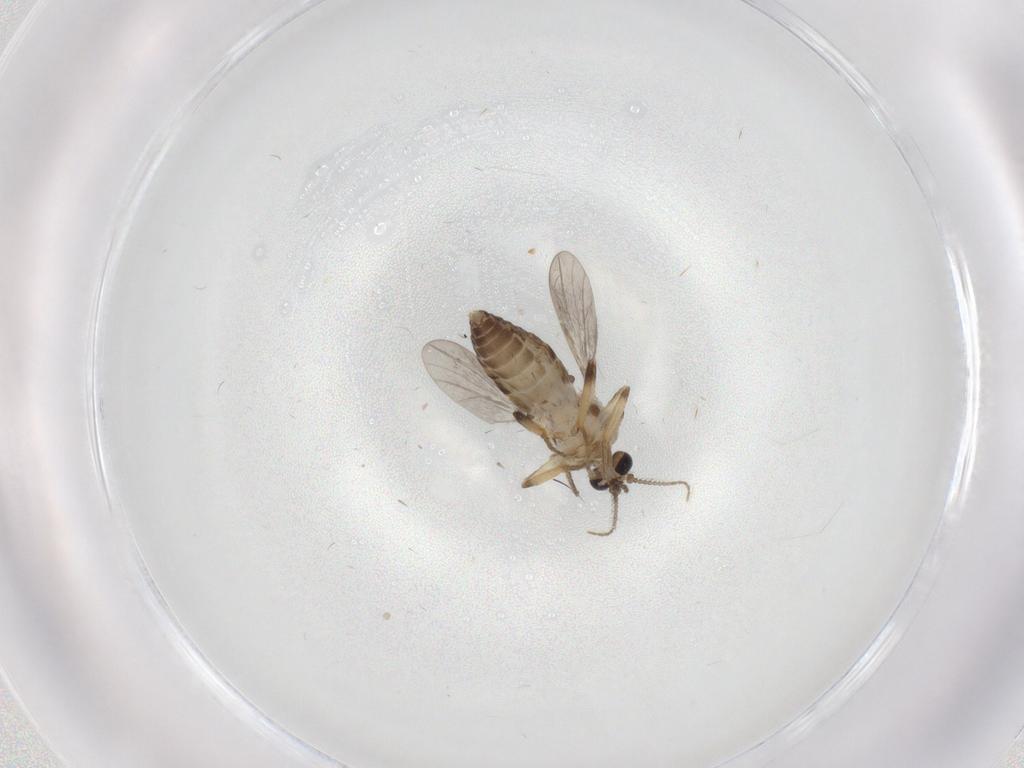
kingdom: Animalia
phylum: Arthropoda
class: Insecta
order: Diptera
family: Ceratopogonidae
